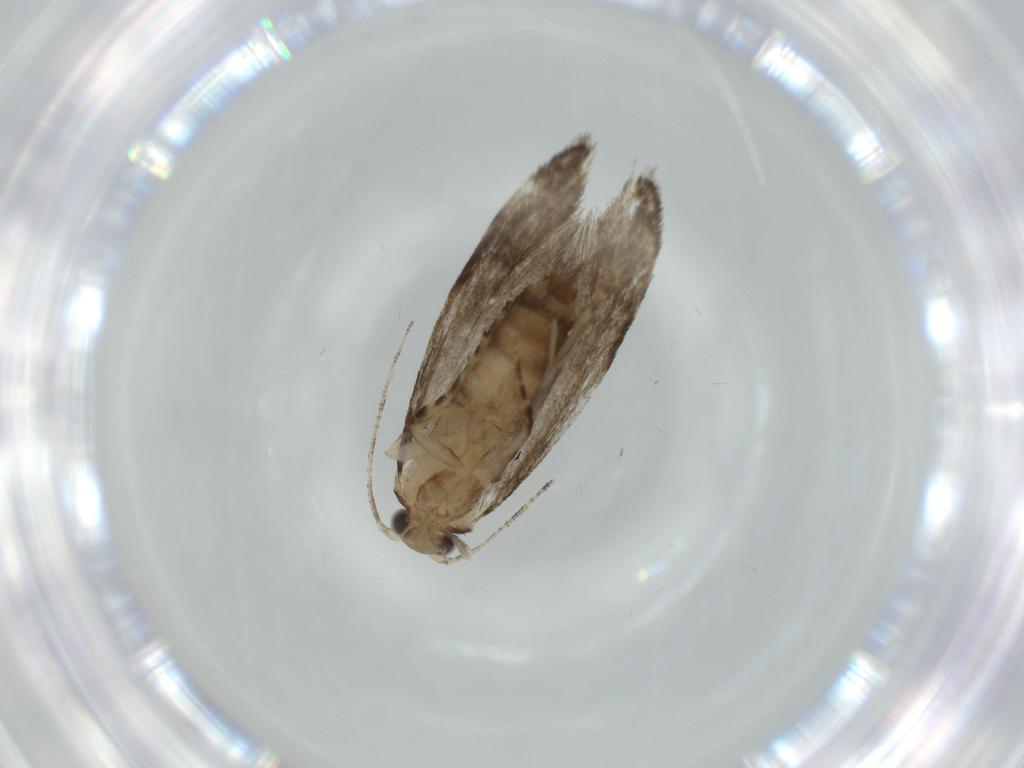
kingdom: Animalia
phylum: Arthropoda
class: Insecta
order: Lepidoptera
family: Tineidae
